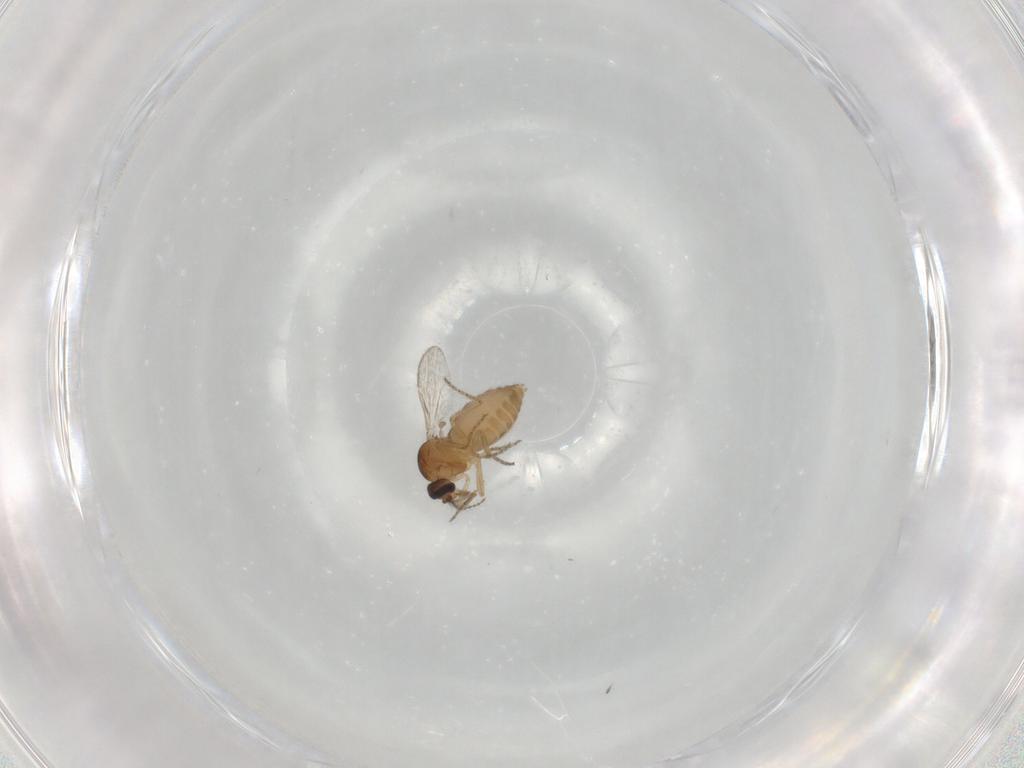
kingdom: Animalia
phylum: Arthropoda
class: Insecta
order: Diptera
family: Ceratopogonidae
